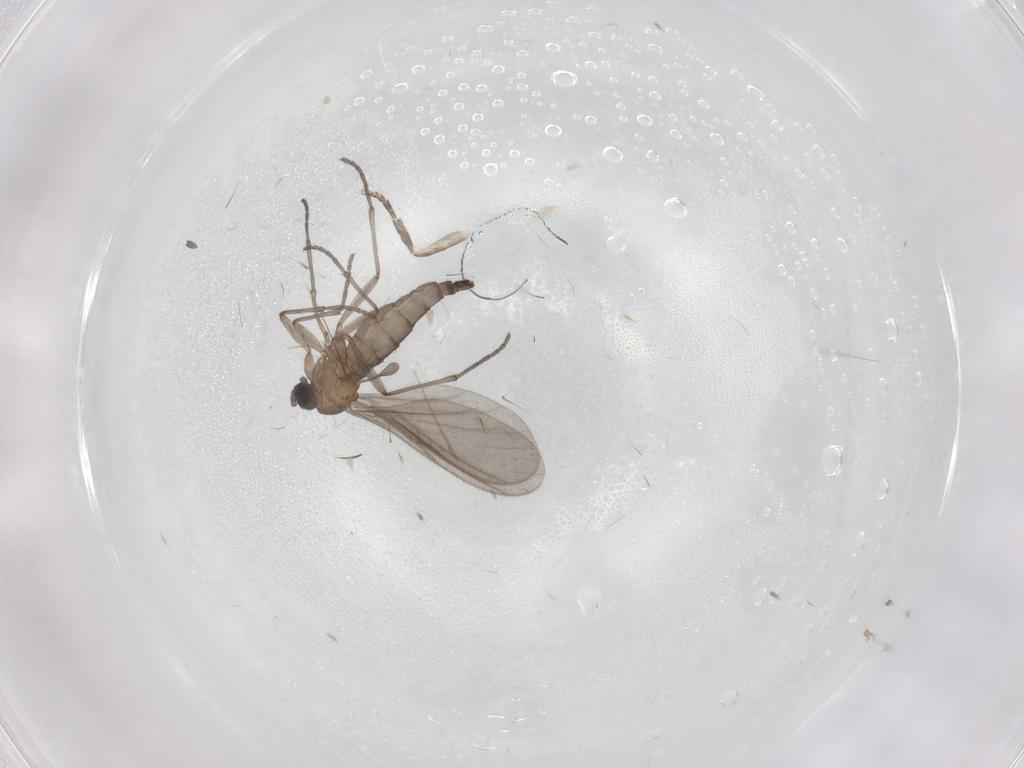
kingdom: Animalia
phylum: Arthropoda
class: Insecta
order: Diptera
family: Sciaridae
